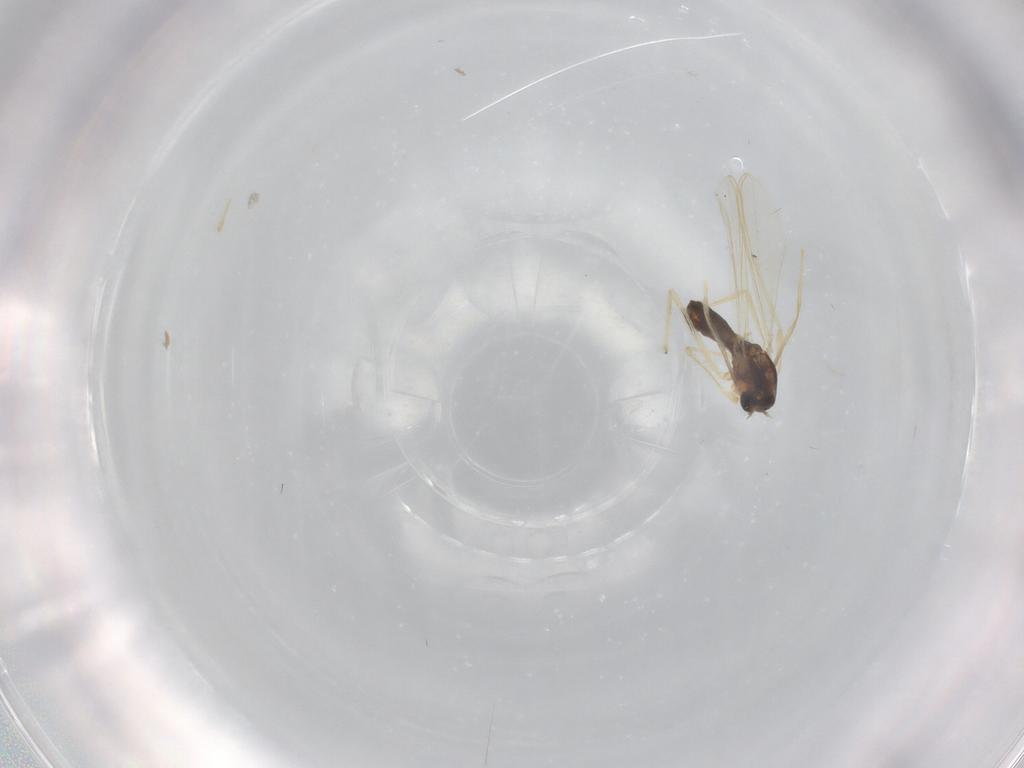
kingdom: Animalia
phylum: Arthropoda
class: Insecta
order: Diptera
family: Chironomidae
